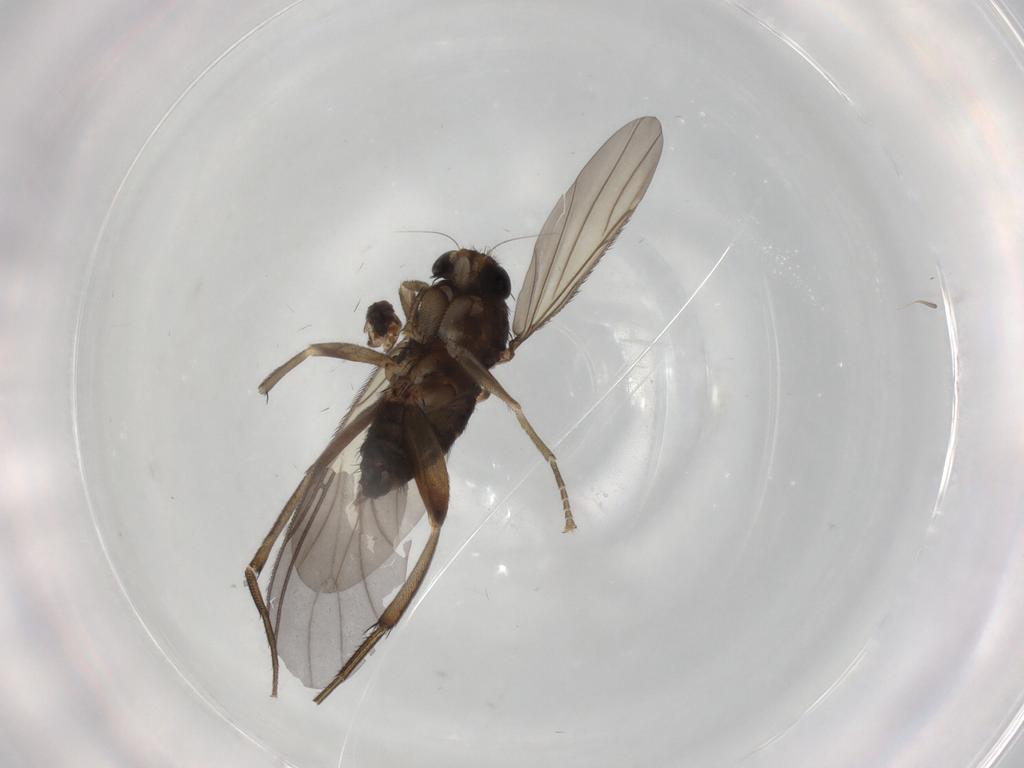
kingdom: Animalia
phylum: Arthropoda
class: Insecta
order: Diptera
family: Phoridae
